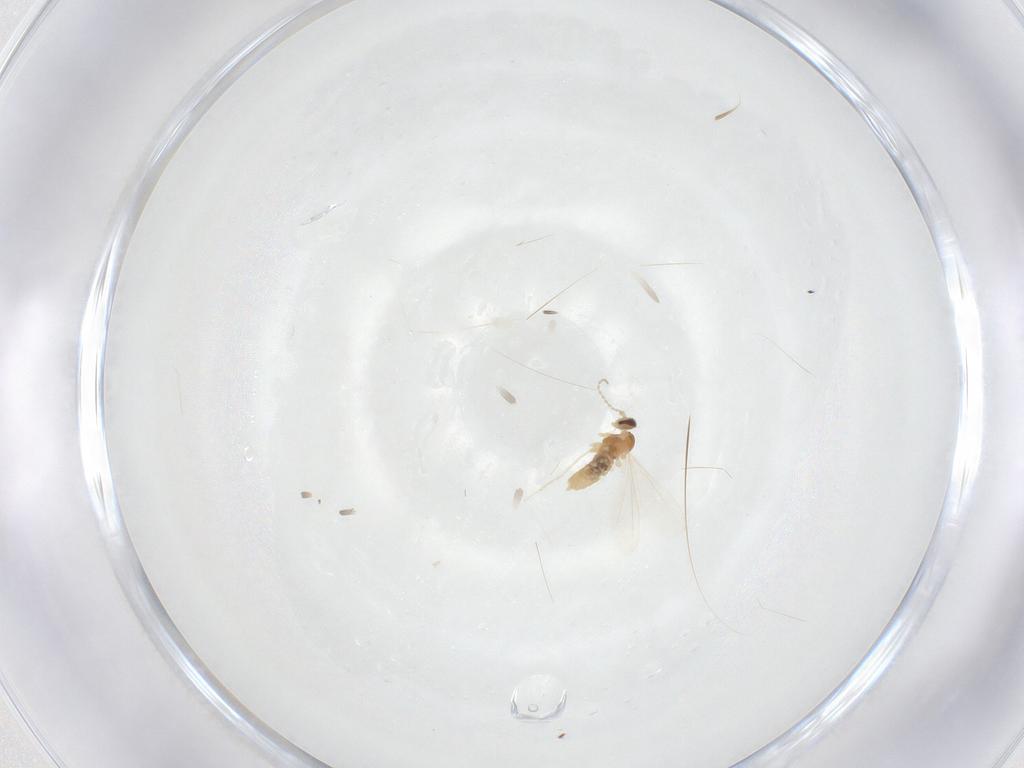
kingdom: Animalia
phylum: Arthropoda
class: Insecta
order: Diptera
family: Cecidomyiidae
